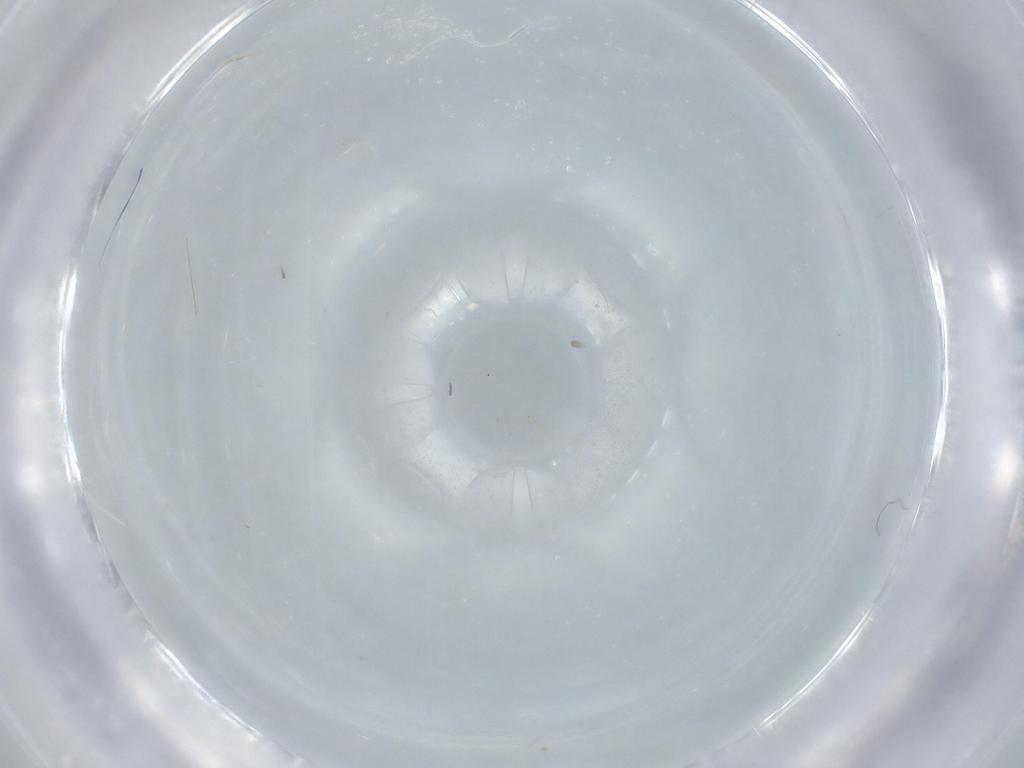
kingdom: Animalia
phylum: Arthropoda
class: Insecta
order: Diptera
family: Cecidomyiidae
